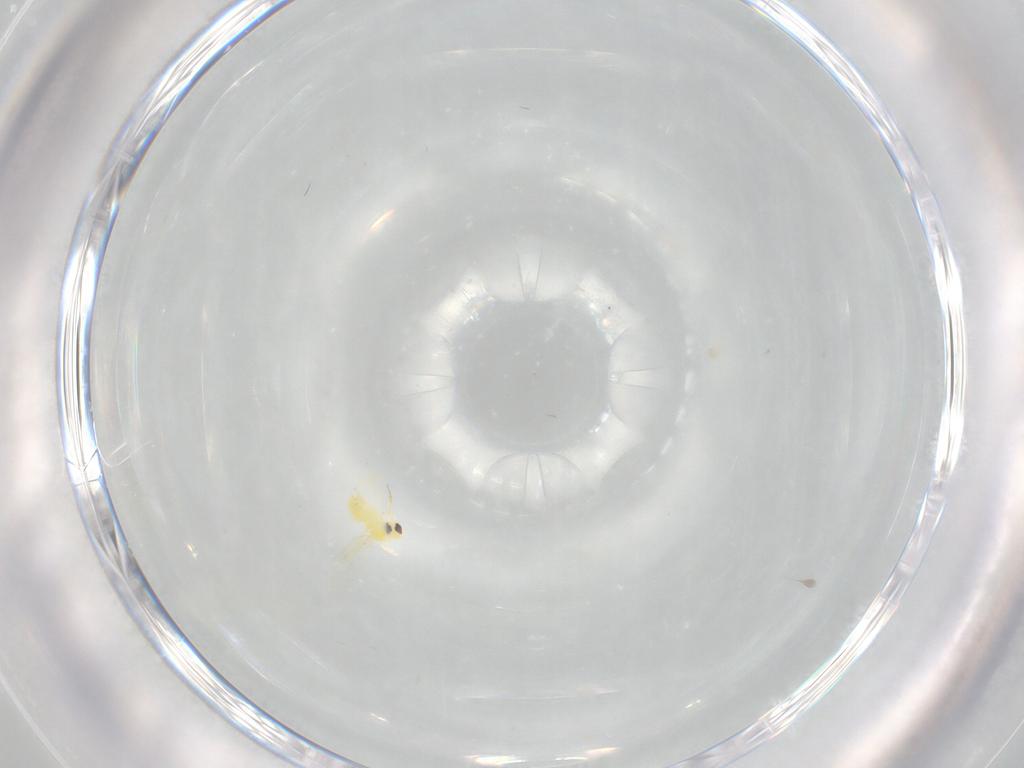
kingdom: Animalia
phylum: Arthropoda
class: Insecta
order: Hemiptera
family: Aleyrodidae
